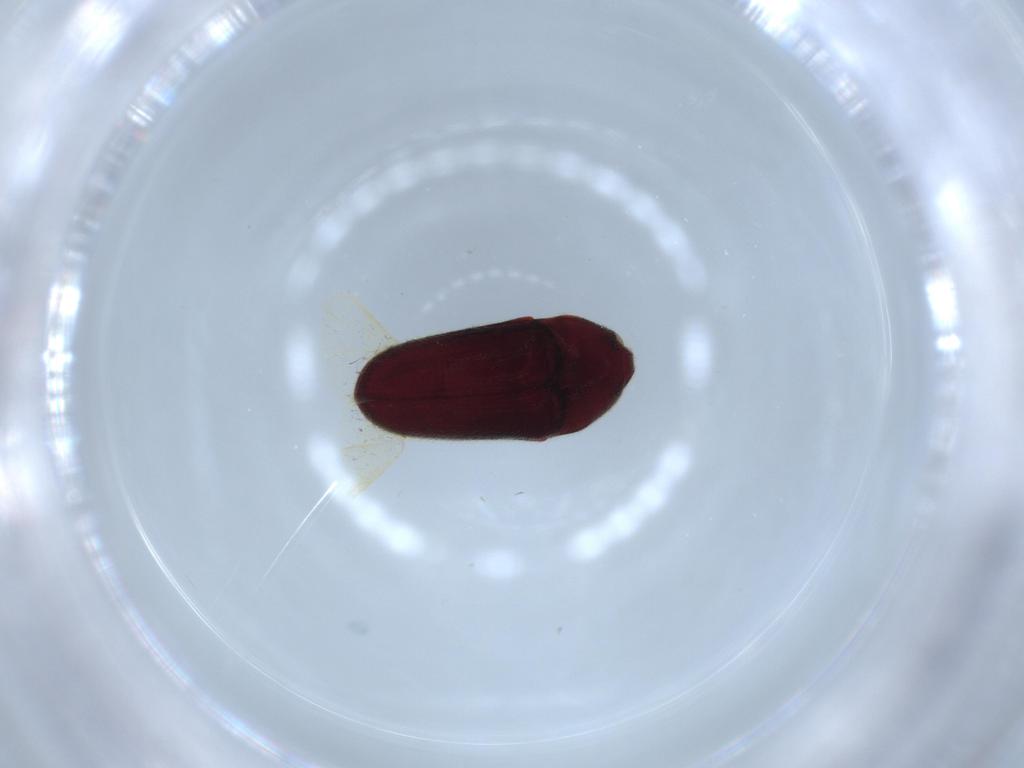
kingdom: Animalia
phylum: Arthropoda
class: Insecta
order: Coleoptera
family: Throscidae
